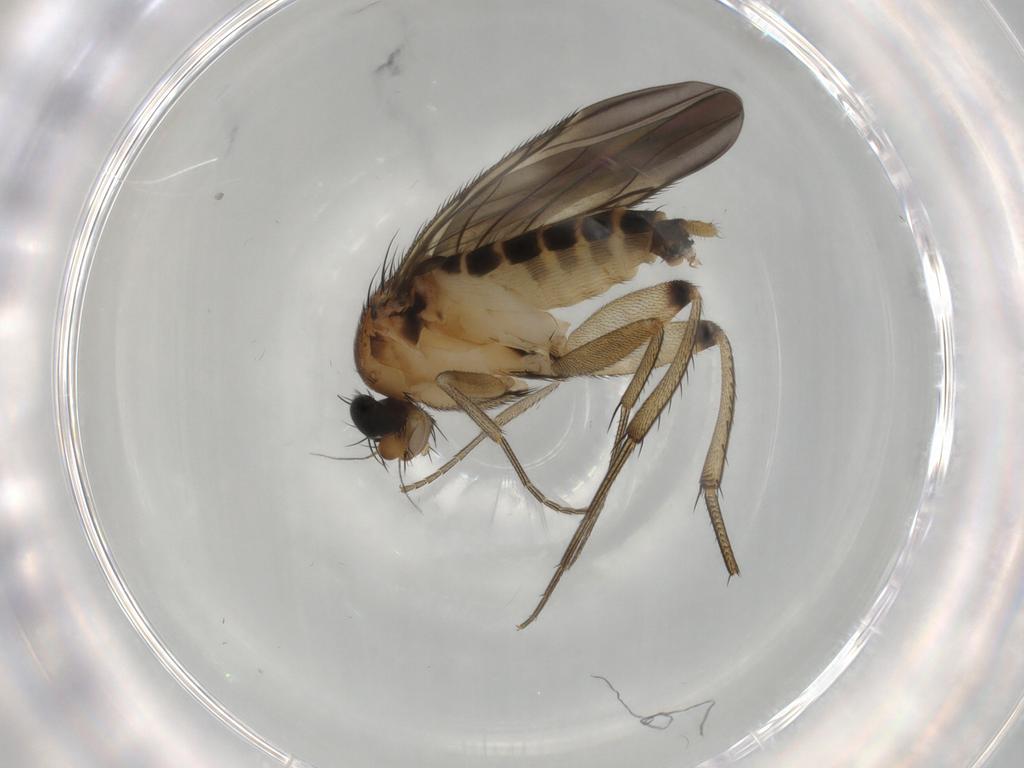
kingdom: Animalia
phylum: Arthropoda
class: Insecta
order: Diptera
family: Phoridae
